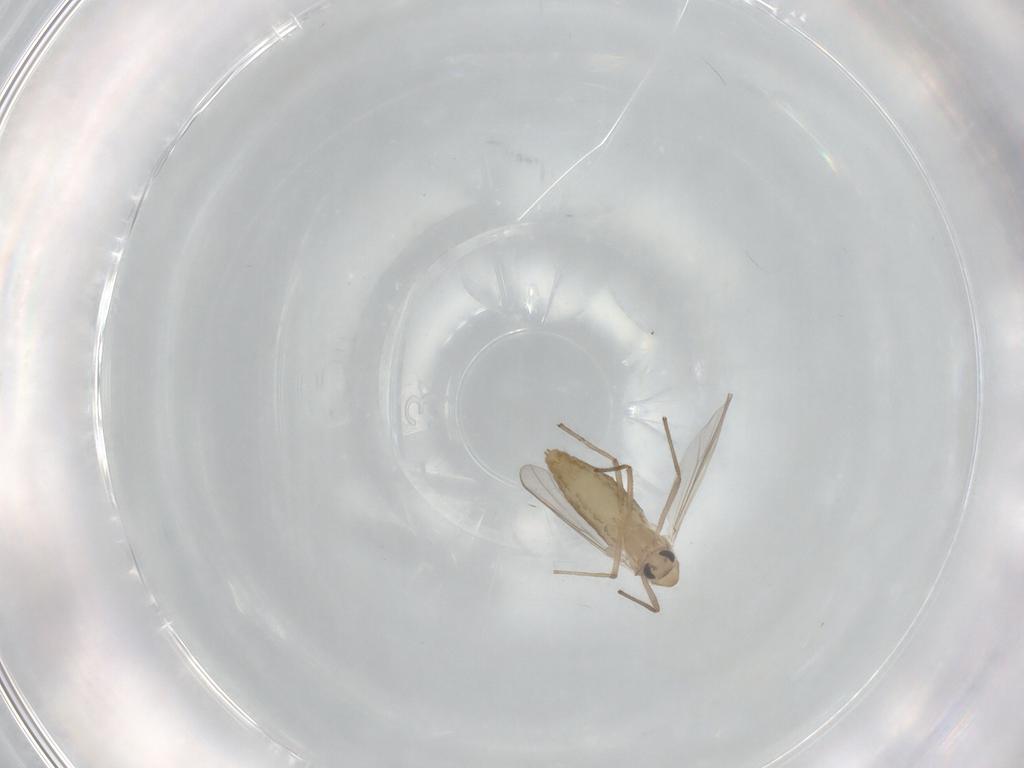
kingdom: Animalia
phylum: Arthropoda
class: Insecta
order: Diptera
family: Chironomidae
